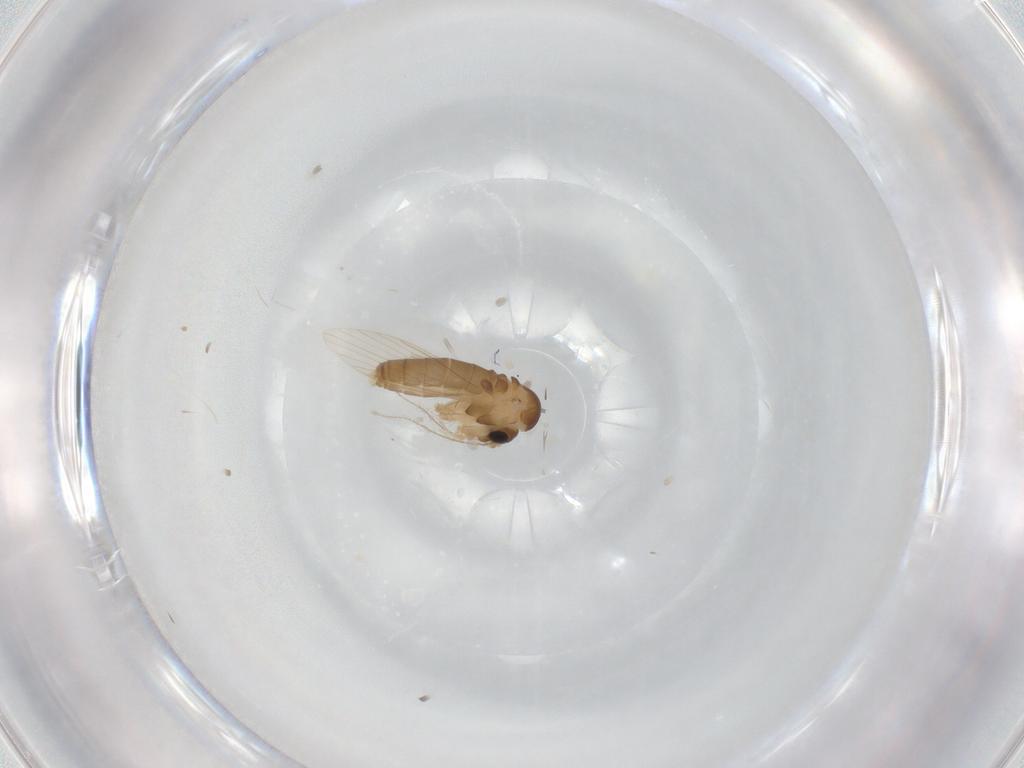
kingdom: Animalia
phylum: Arthropoda
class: Insecta
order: Diptera
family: Psychodidae
